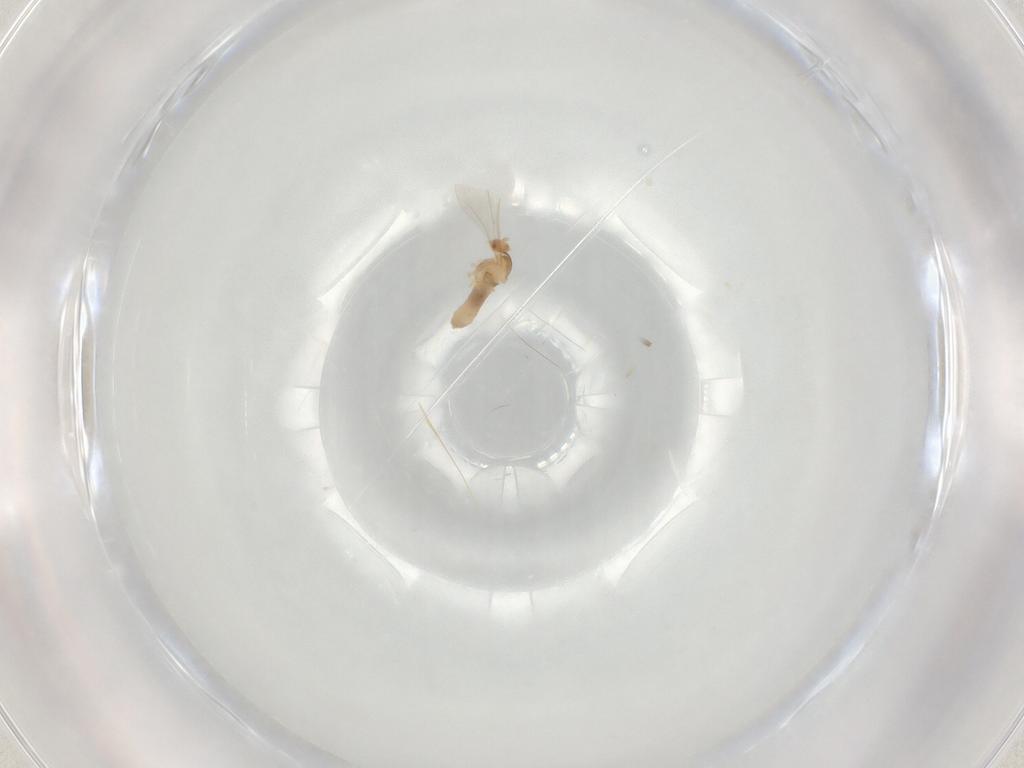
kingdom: Animalia
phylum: Arthropoda
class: Insecta
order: Diptera
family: Cecidomyiidae
